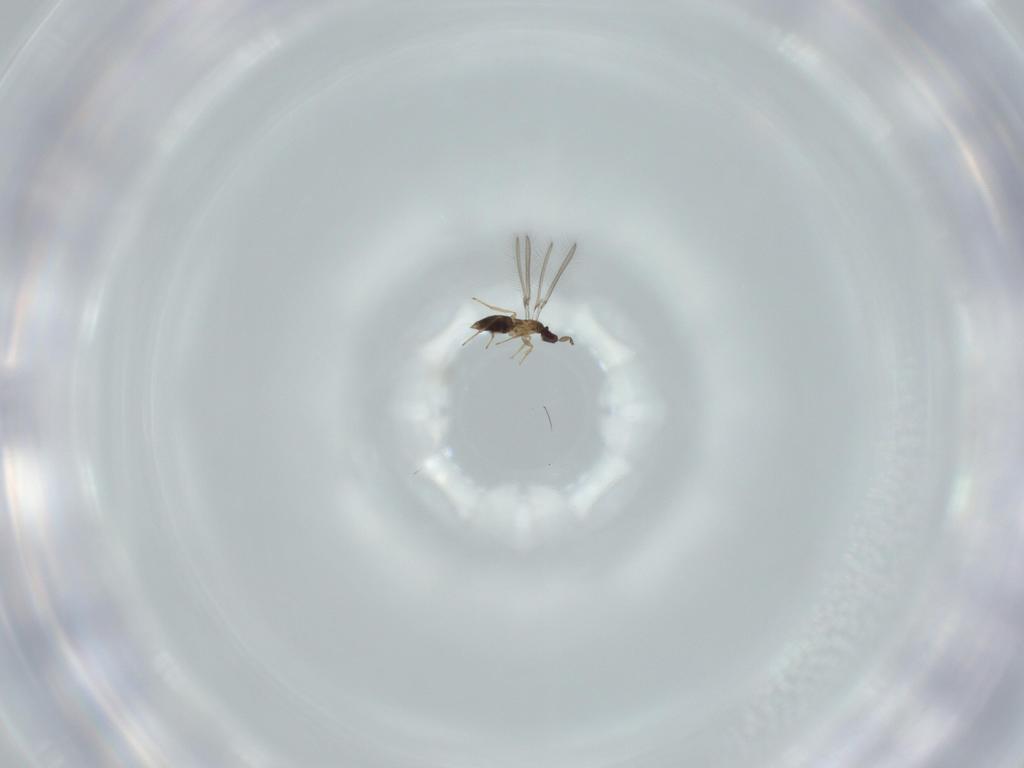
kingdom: Animalia
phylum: Arthropoda
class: Insecta
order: Hymenoptera
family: Mymaridae
